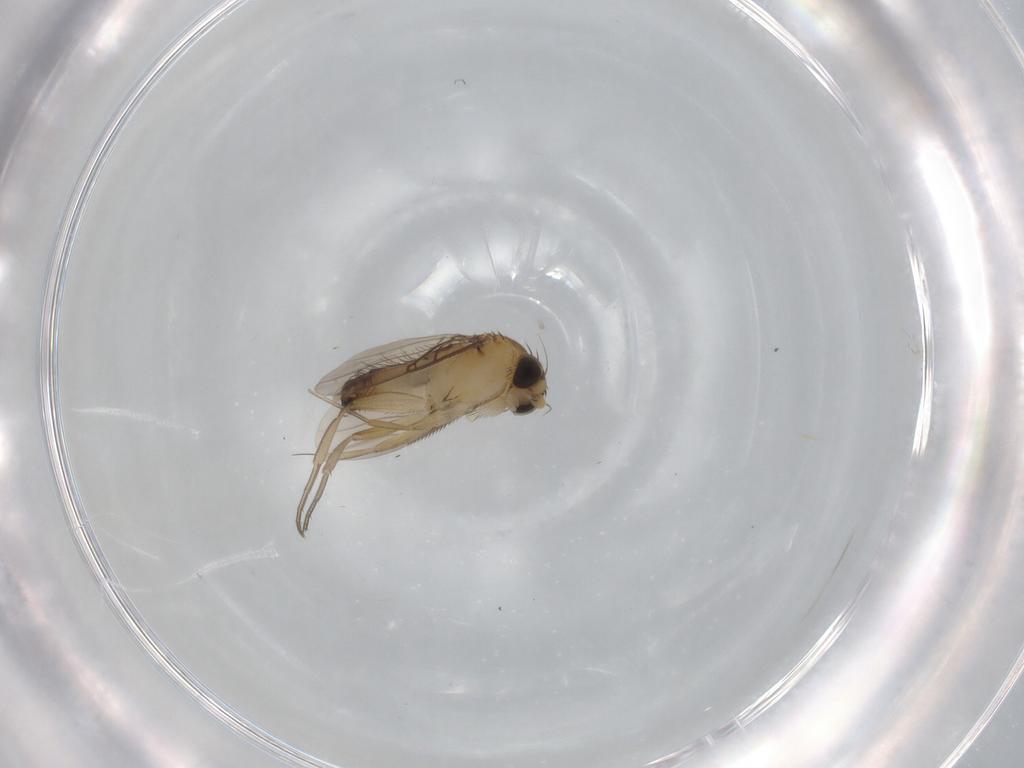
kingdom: Animalia
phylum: Arthropoda
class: Insecta
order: Diptera
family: Phoridae
